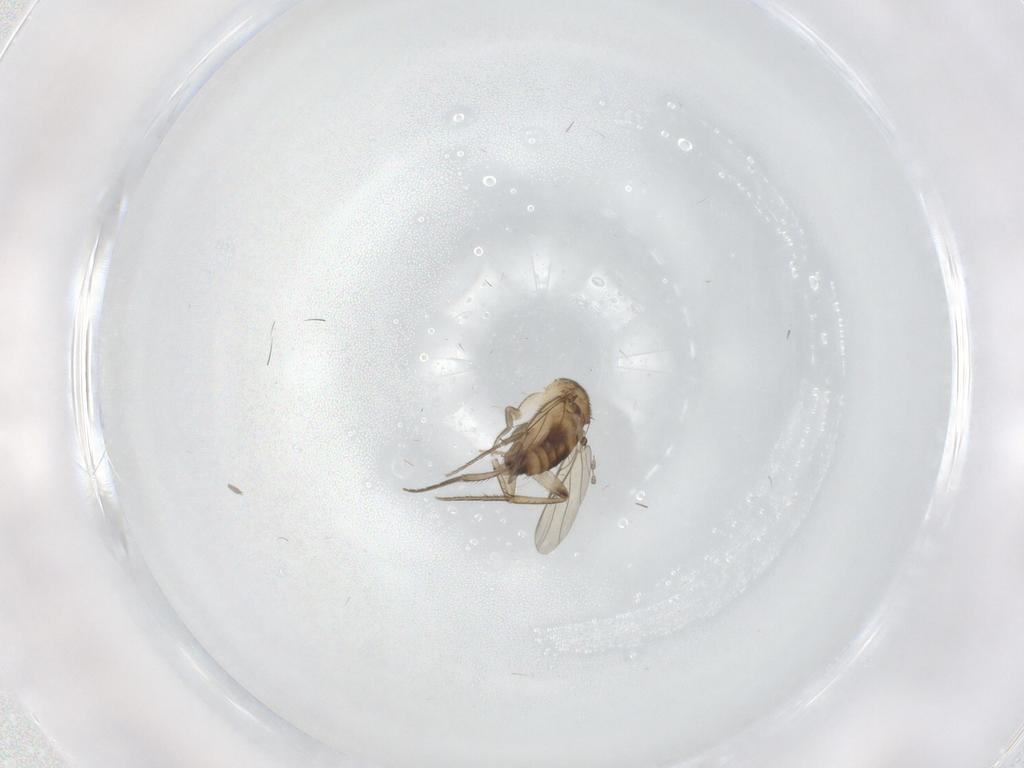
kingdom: Animalia
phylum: Arthropoda
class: Insecta
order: Diptera
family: Phoridae
